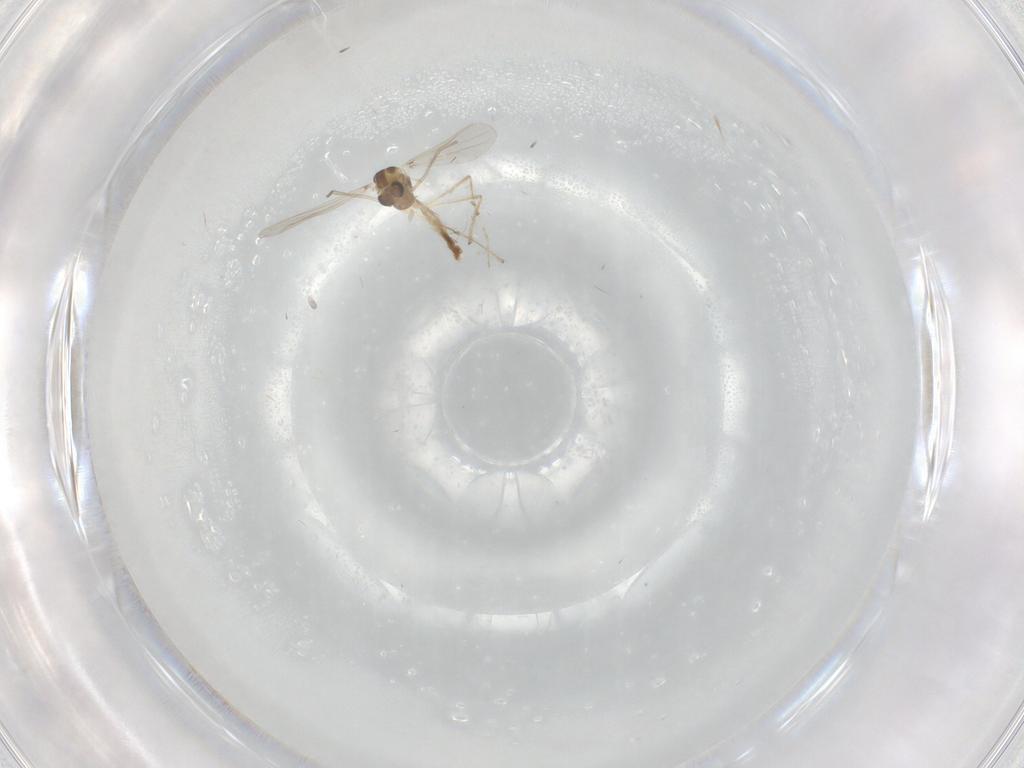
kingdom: Animalia
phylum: Arthropoda
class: Insecta
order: Diptera
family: Chironomidae
